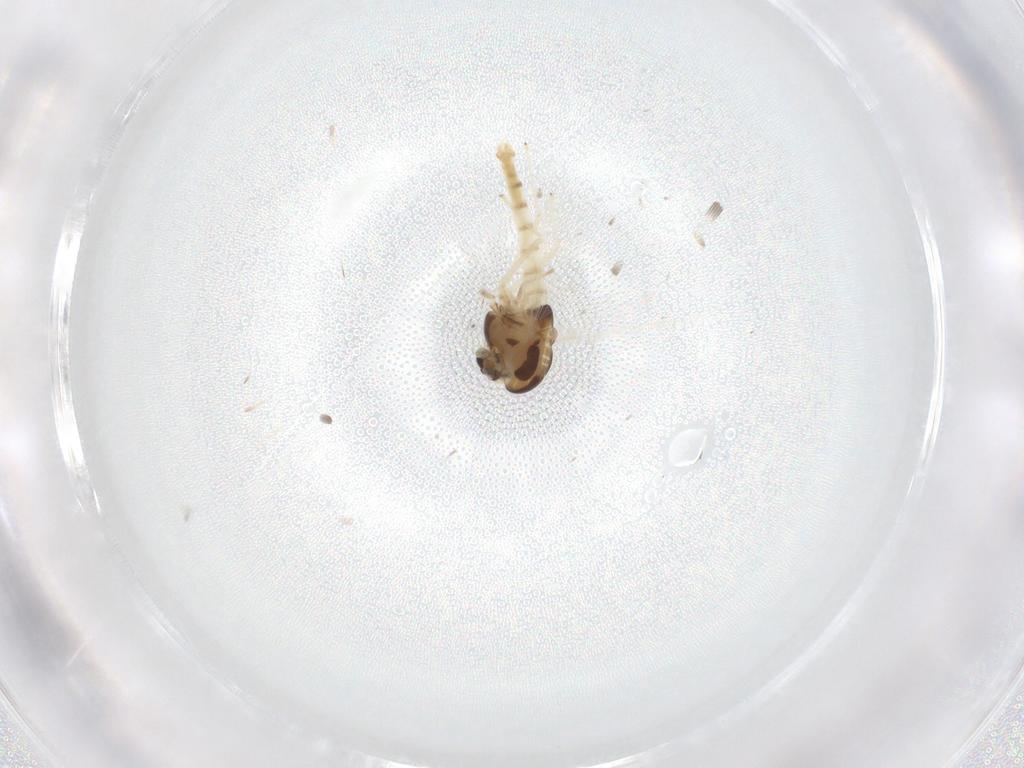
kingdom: Animalia
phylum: Arthropoda
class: Insecta
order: Diptera
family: Chironomidae
